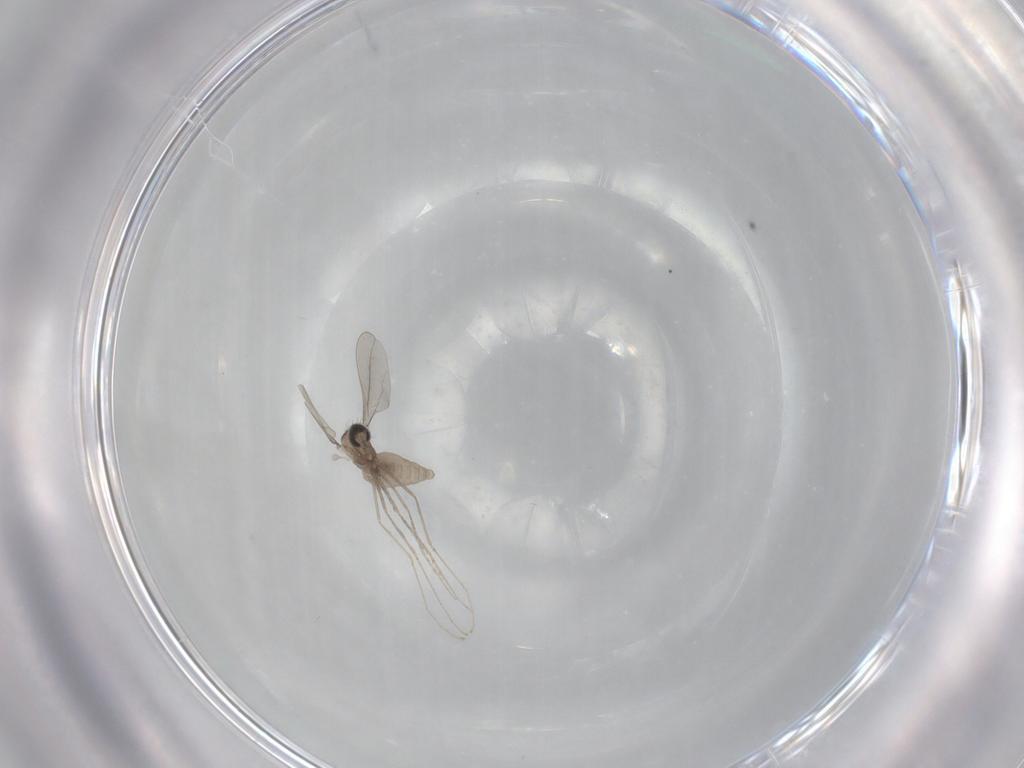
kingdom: Animalia
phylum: Arthropoda
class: Insecta
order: Diptera
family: Cecidomyiidae
